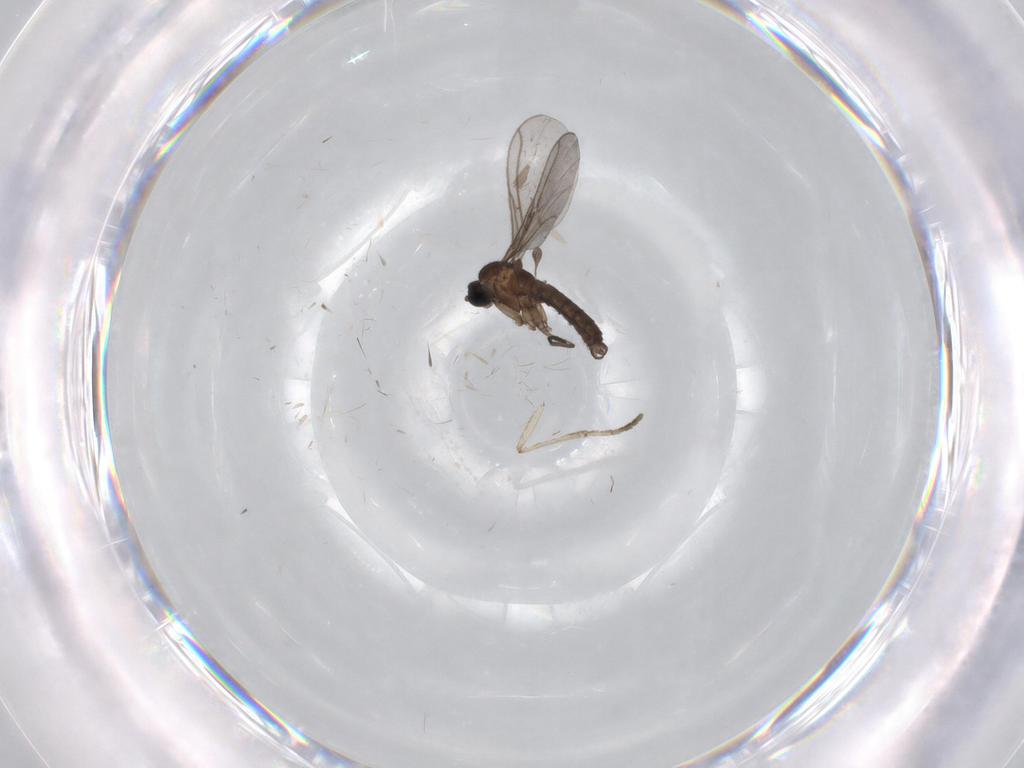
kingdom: Animalia
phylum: Arthropoda
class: Insecta
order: Diptera
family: Psychodidae
